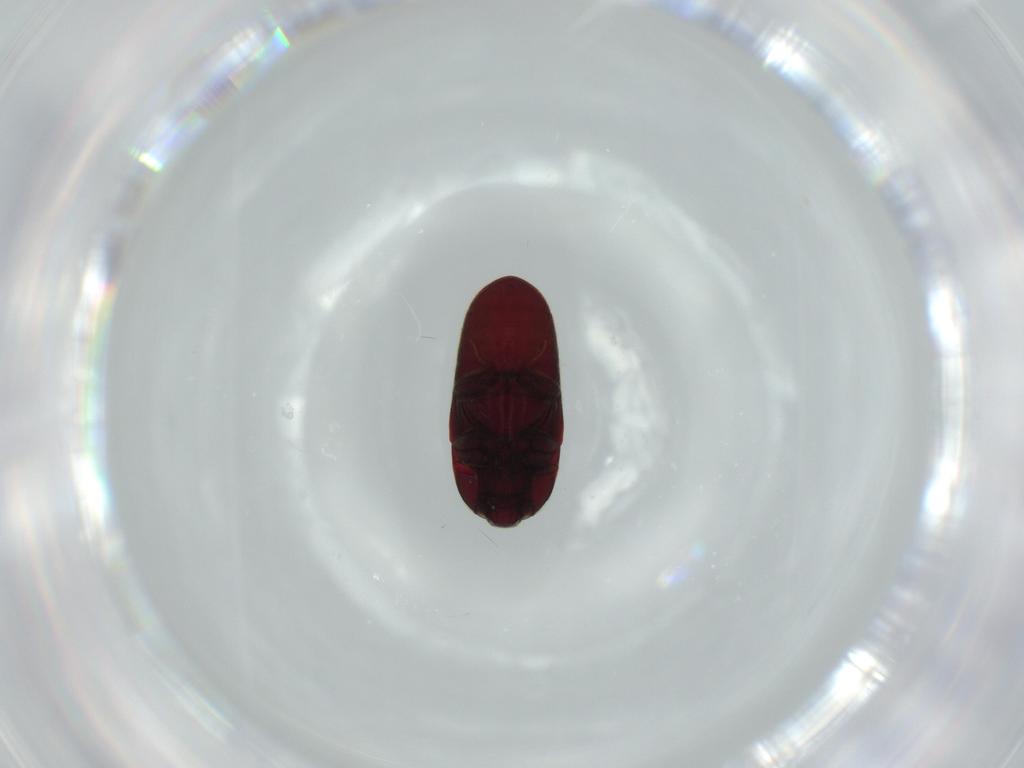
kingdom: Animalia
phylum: Arthropoda
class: Insecta
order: Coleoptera
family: Throscidae
